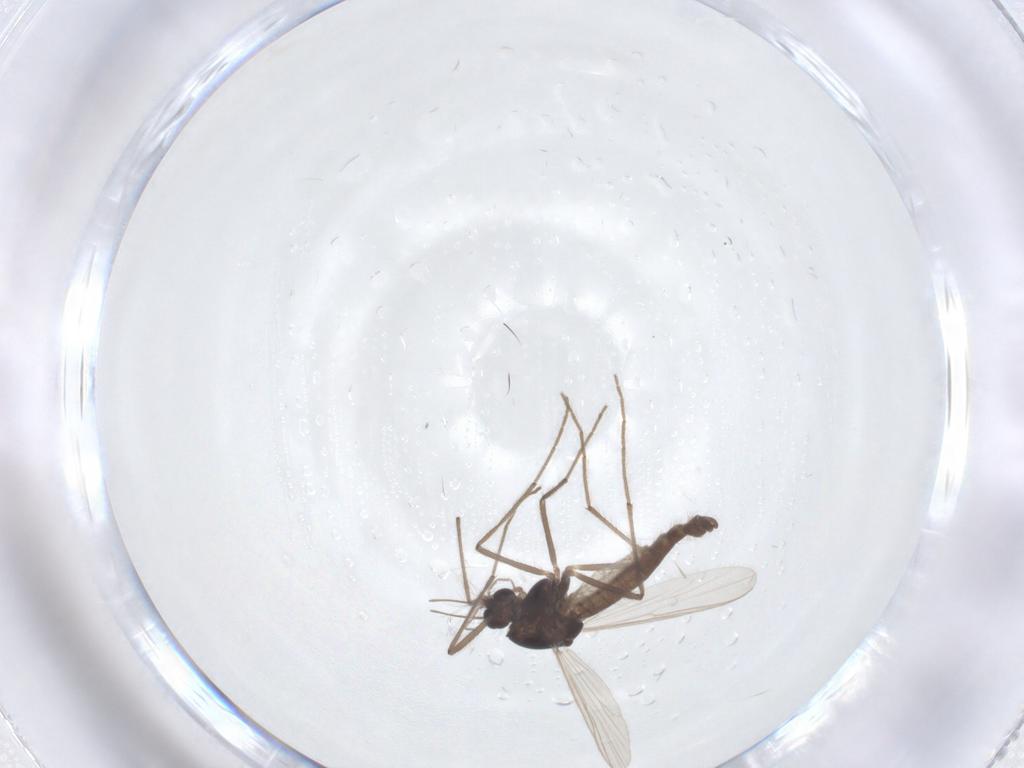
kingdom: Animalia
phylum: Arthropoda
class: Insecta
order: Diptera
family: Chironomidae
